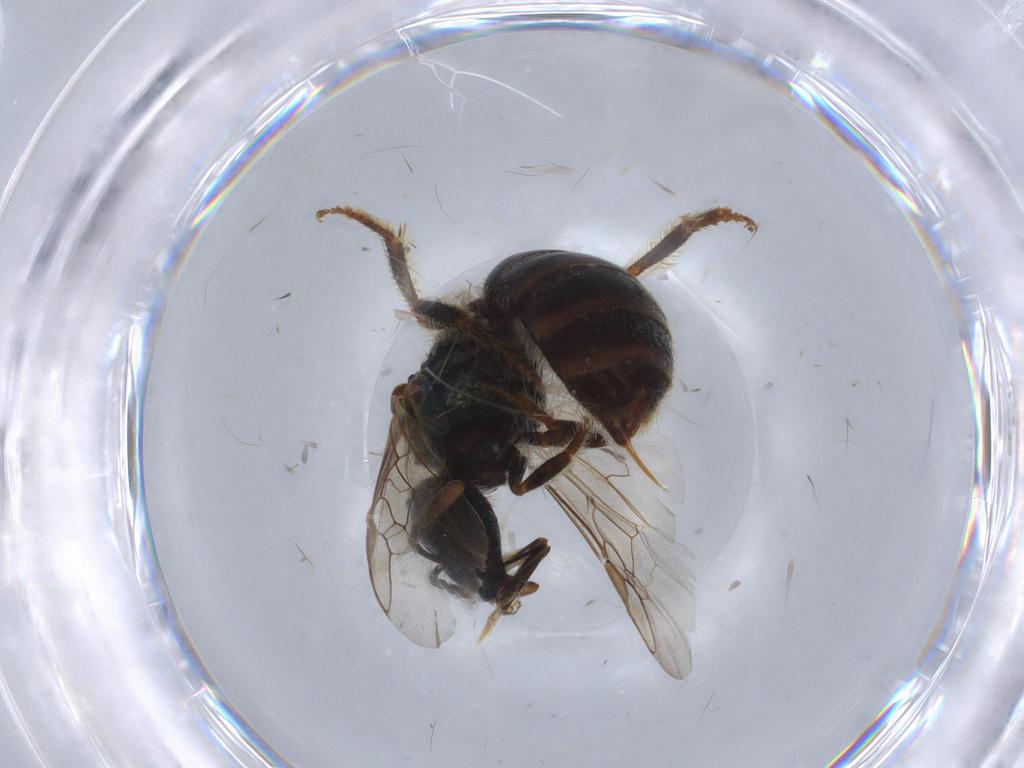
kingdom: Animalia
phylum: Arthropoda
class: Insecta
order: Hymenoptera
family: Halictidae
